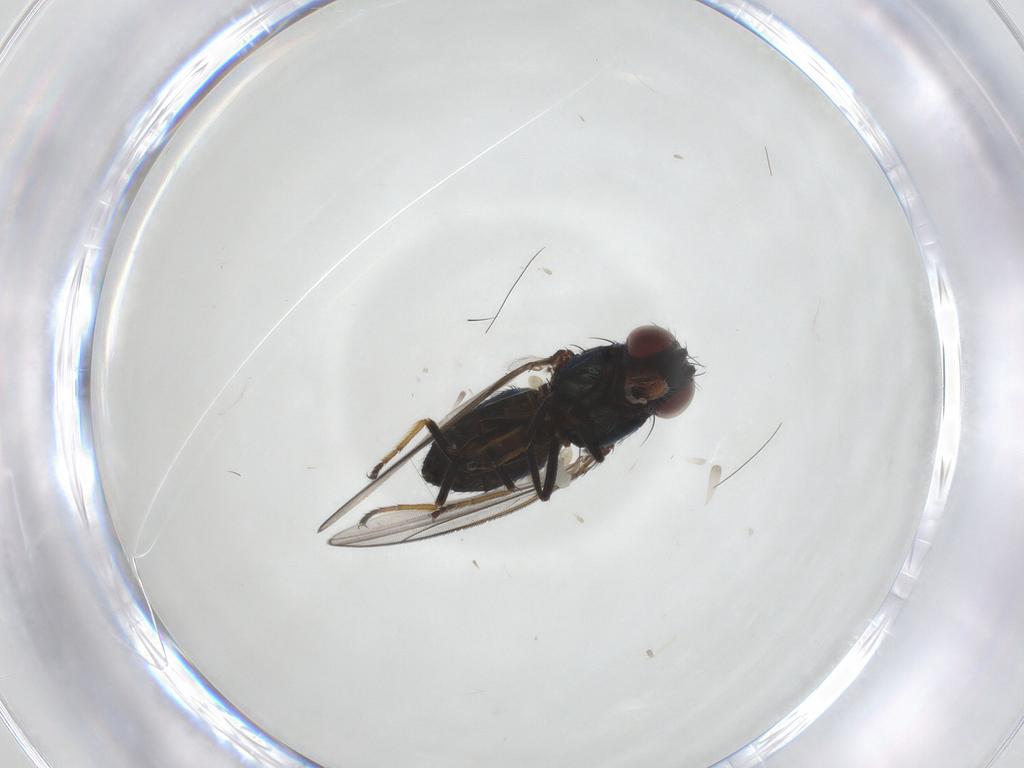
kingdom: Animalia
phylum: Arthropoda
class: Insecta
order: Diptera
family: Ephydridae
